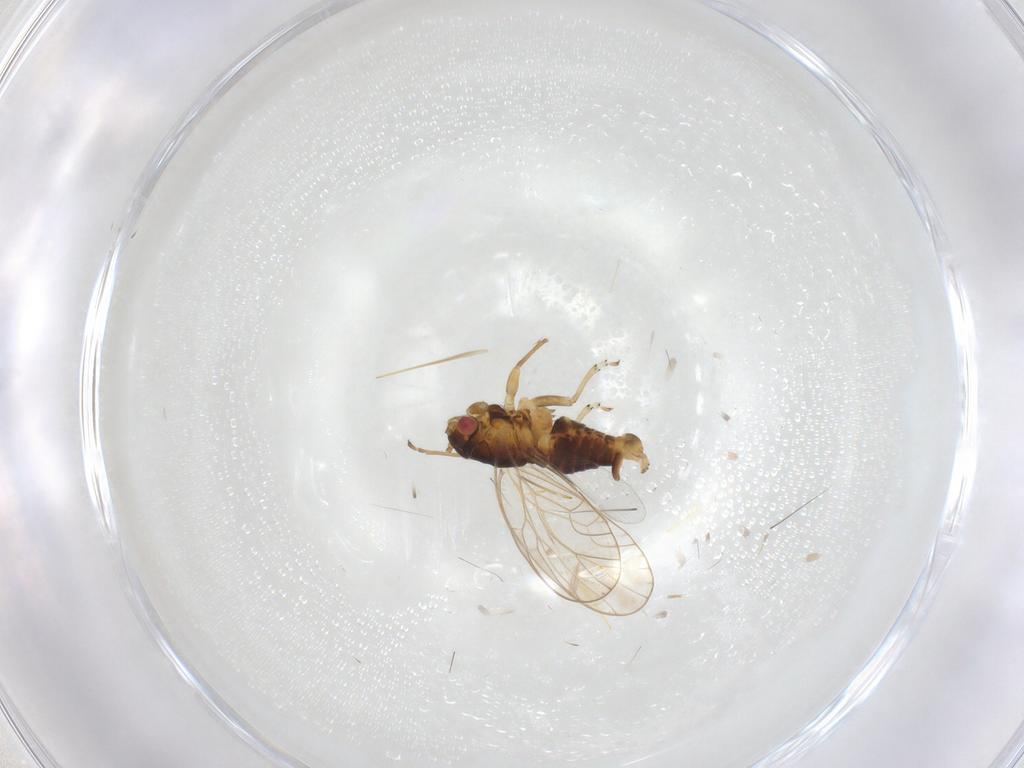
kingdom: Animalia
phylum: Arthropoda
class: Insecta
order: Hemiptera
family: Psyllidae
